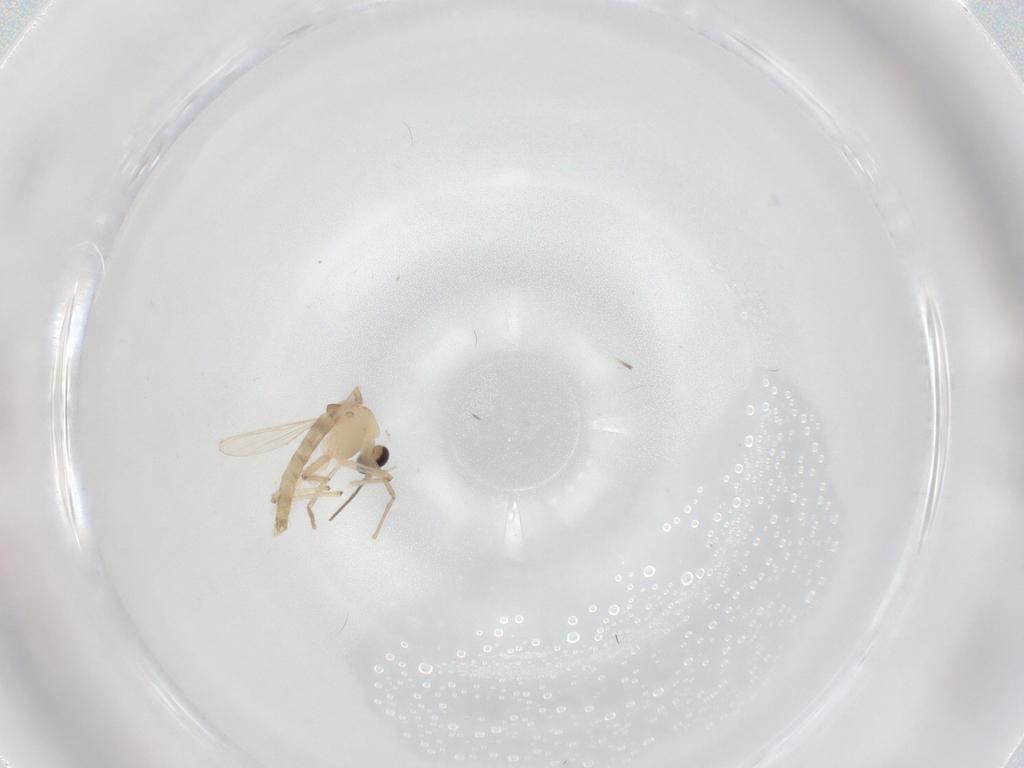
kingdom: Animalia
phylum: Arthropoda
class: Insecta
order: Diptera
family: Chironomidae
